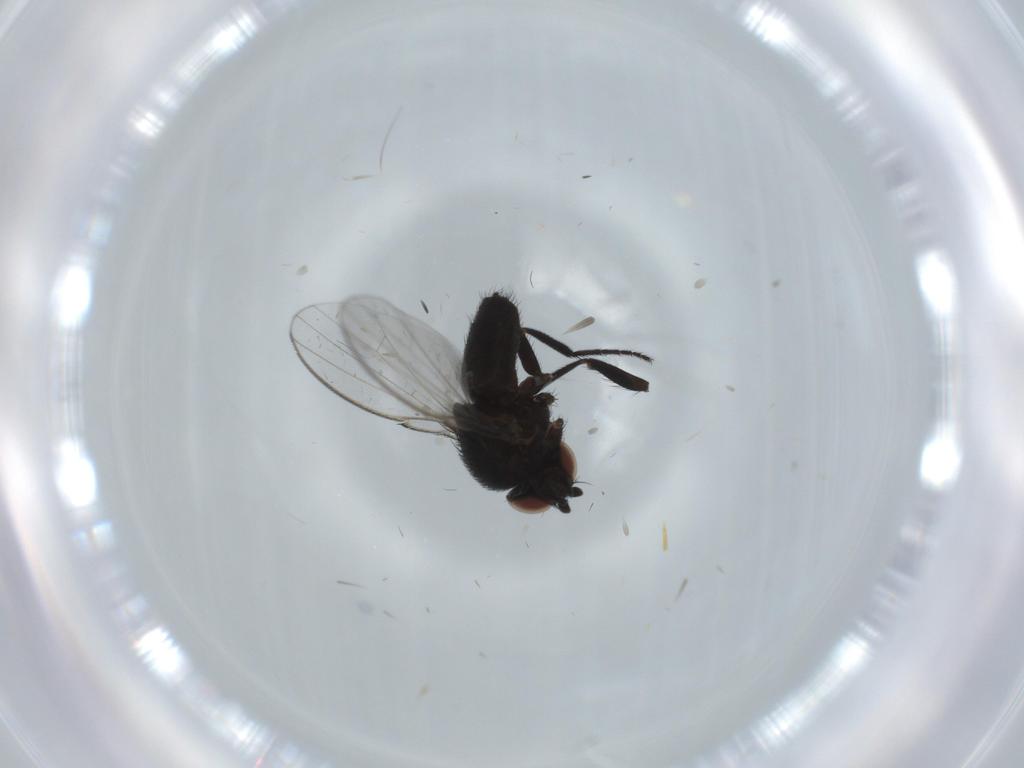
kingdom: Animalia
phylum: Arthropoda
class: Insecta
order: Diptera
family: Milichiidae
